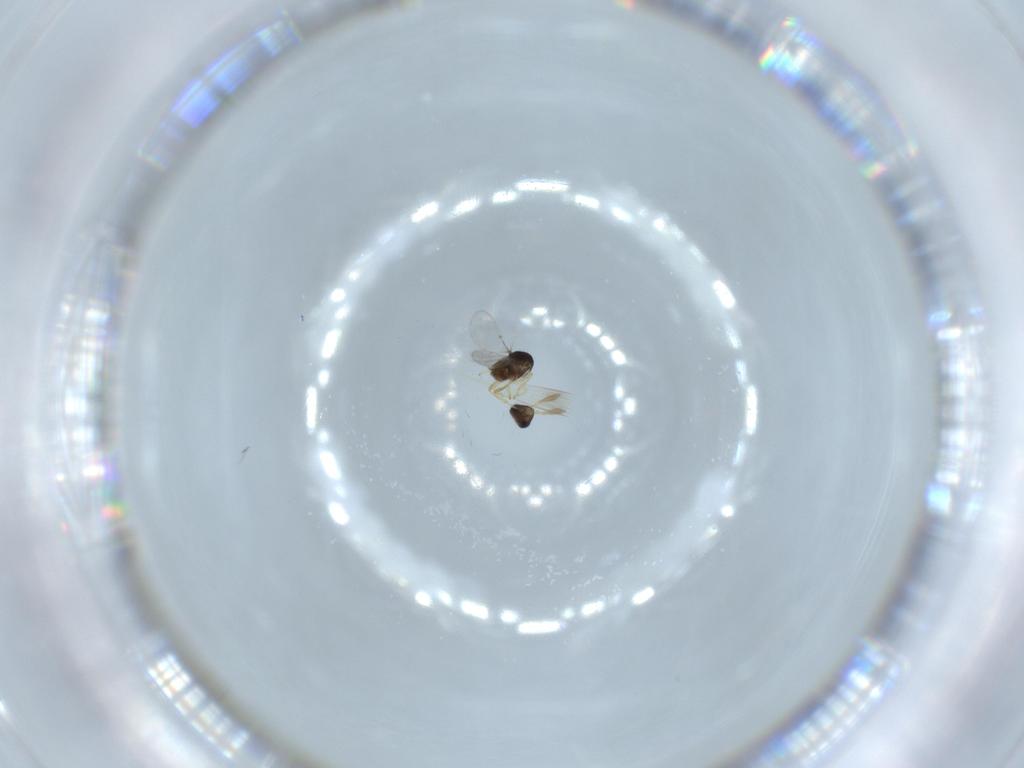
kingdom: Animalia
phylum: Arthropoda
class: Insecta
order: Hymenoptera
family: Encyrtidae
